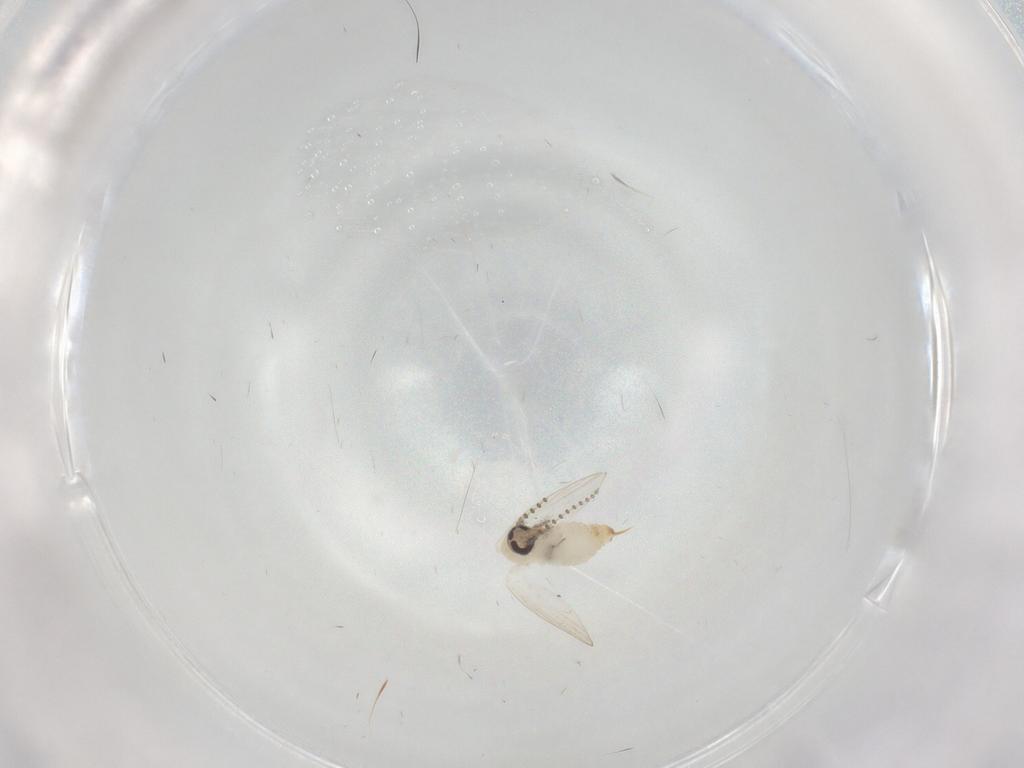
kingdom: Animalia
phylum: Arthropoda
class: Insecta
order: Diptera
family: Psychodidae
